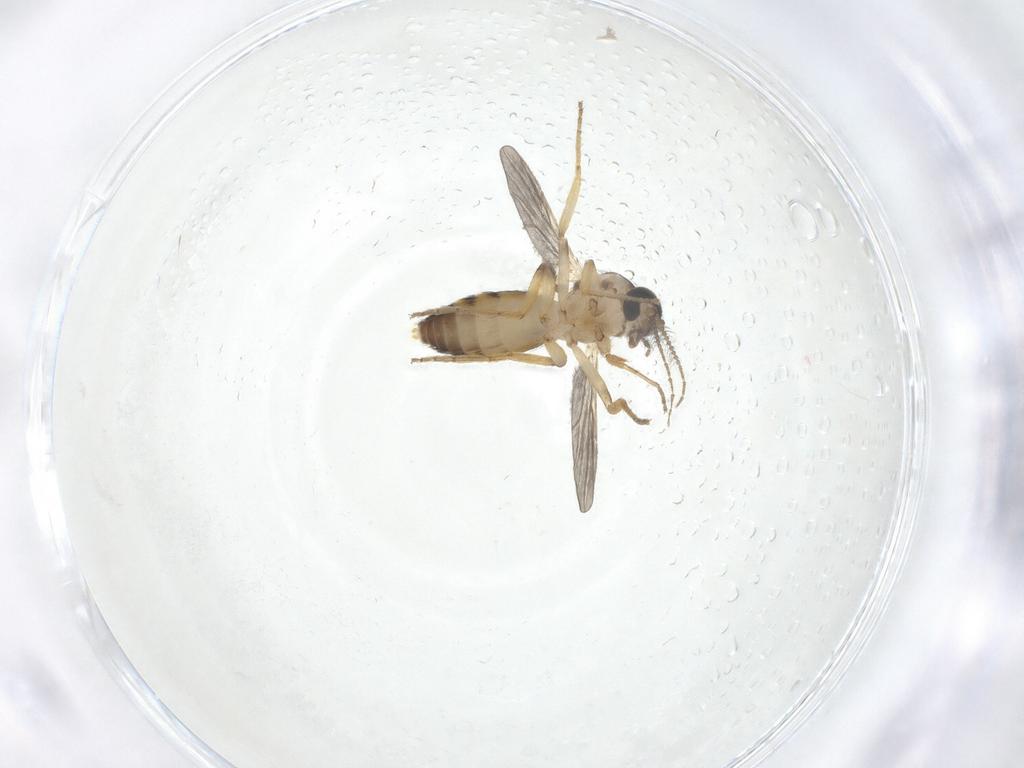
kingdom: Animalia
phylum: Arthropoda
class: Insecta
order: Diptera
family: Ceratopogonidae
